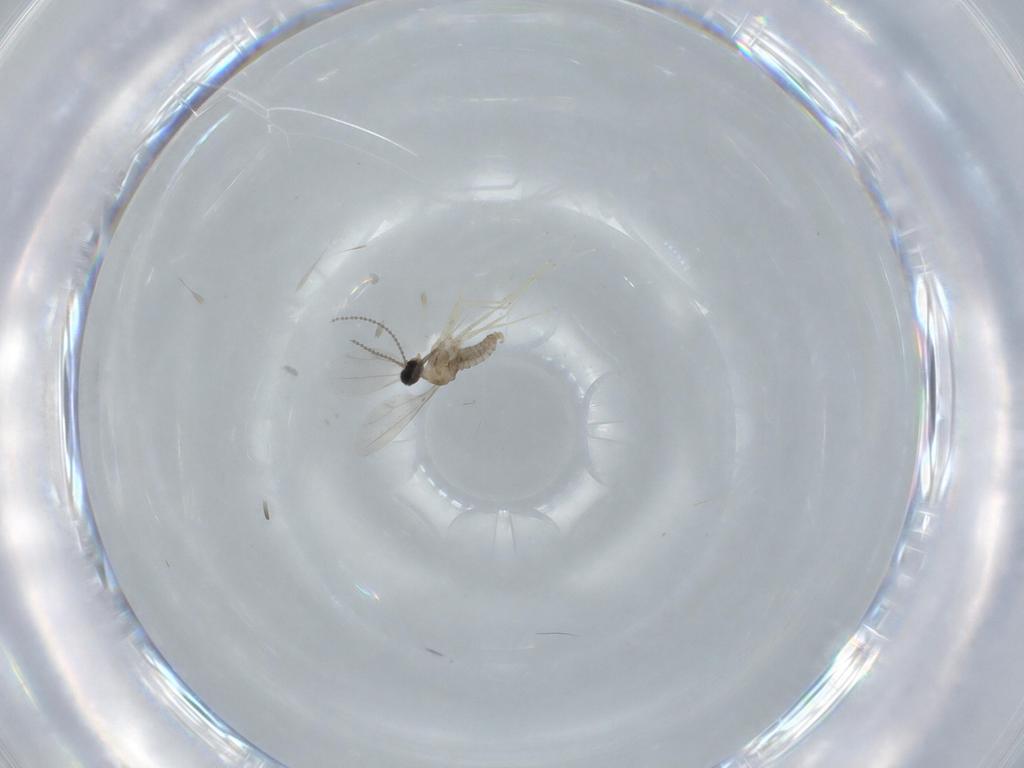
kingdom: Animalia
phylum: Arthropoda
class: Insecta
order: Diptera
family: Cecidomyiidae
